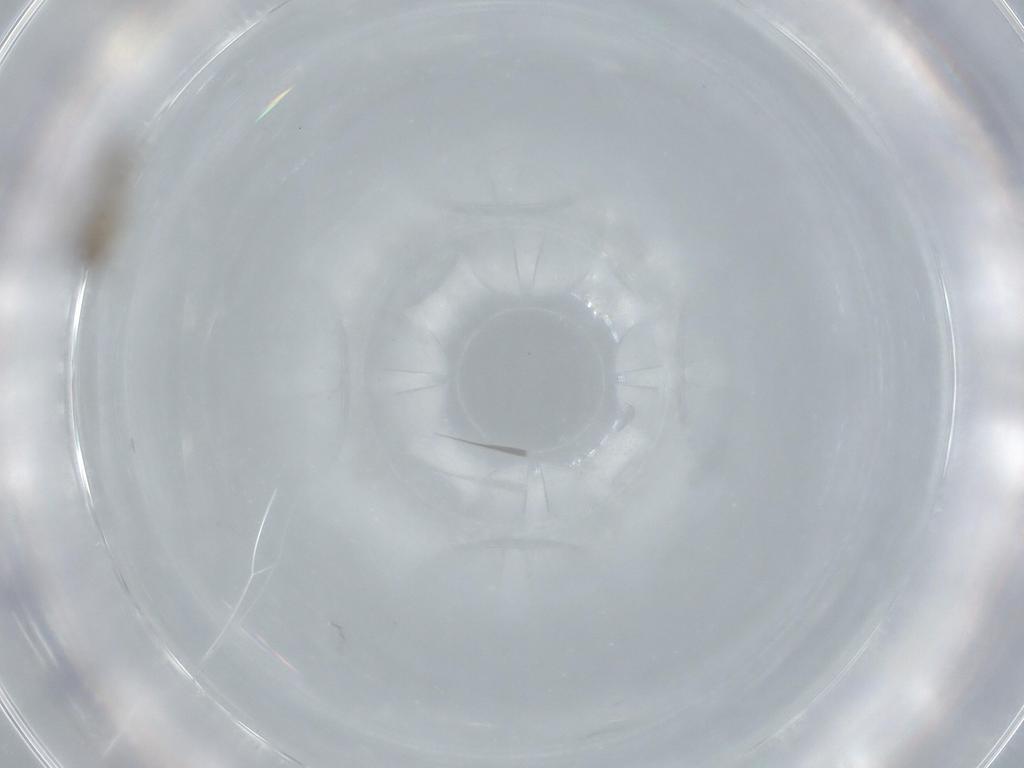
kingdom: Animalia
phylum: Arthropoda
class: Insecta
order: Diptera
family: Psychodidae
